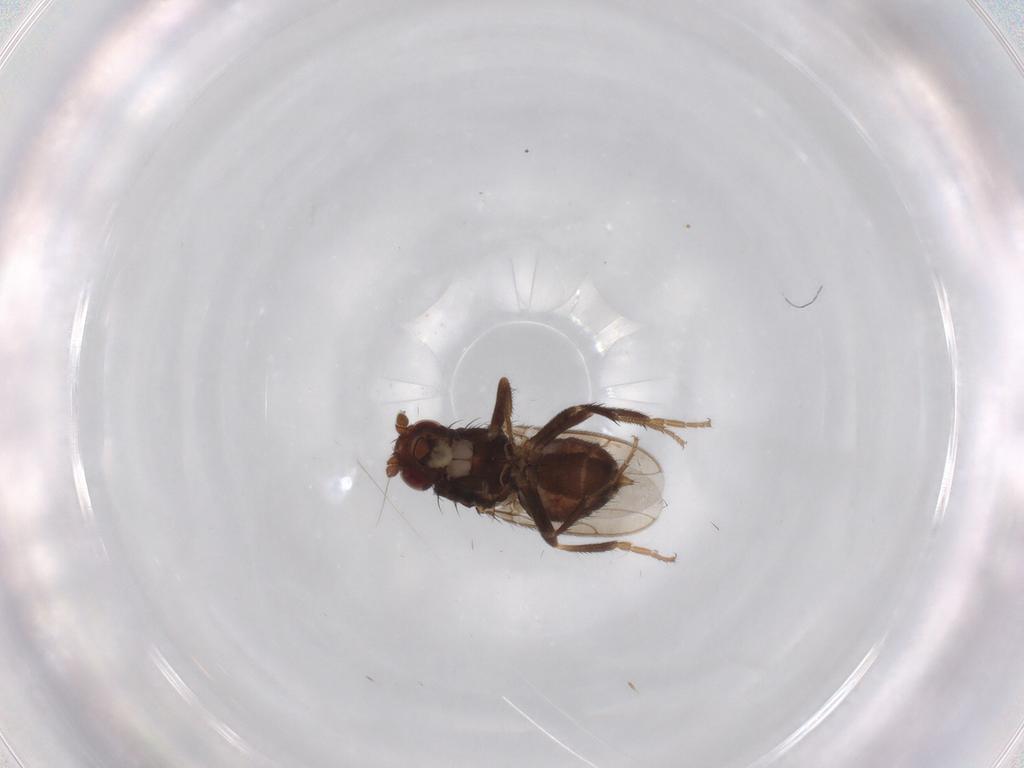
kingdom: Animalia
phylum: Arthropoda
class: Insecta
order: Diptera
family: Sphaeroceridae
